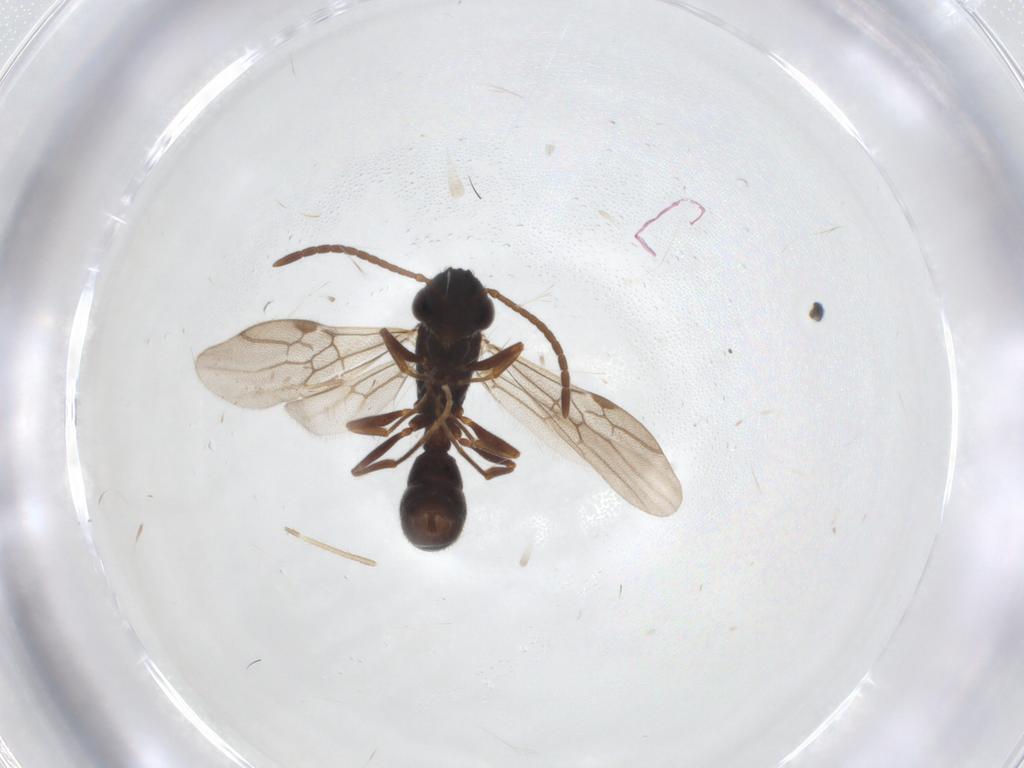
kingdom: Animalia
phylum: Arthropoda
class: Insecta
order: Hymenoptera
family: Formicidae
